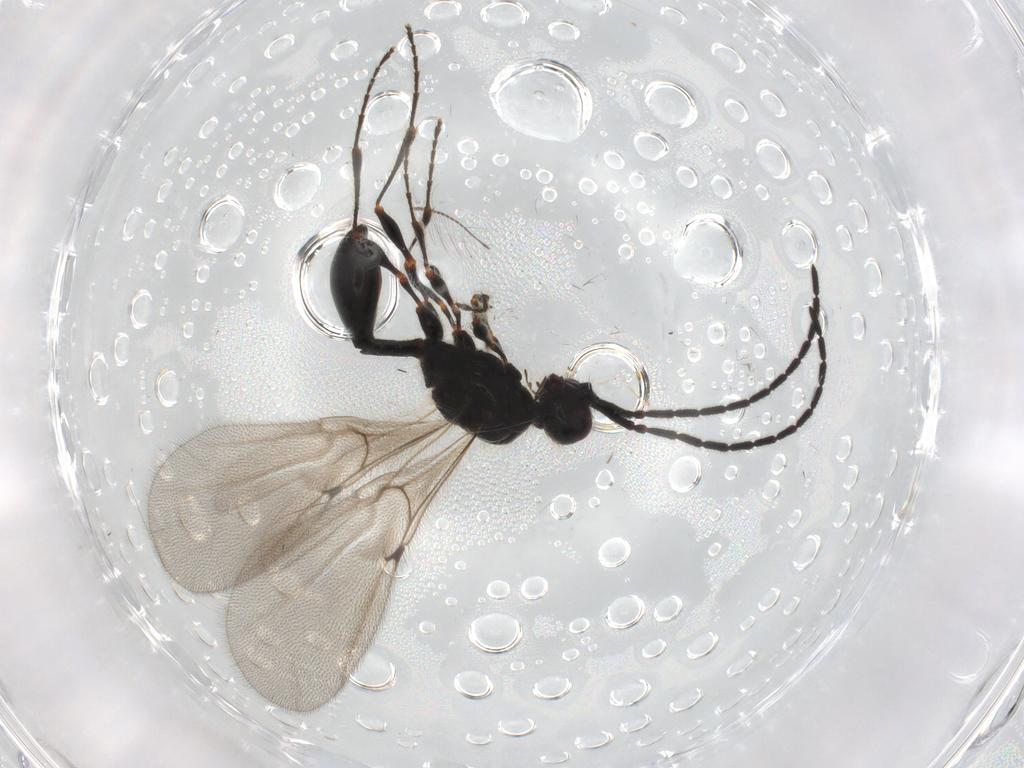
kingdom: Animalia
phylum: Arthropoda
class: Insecta
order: Hymenoptera
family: Diapriidae
